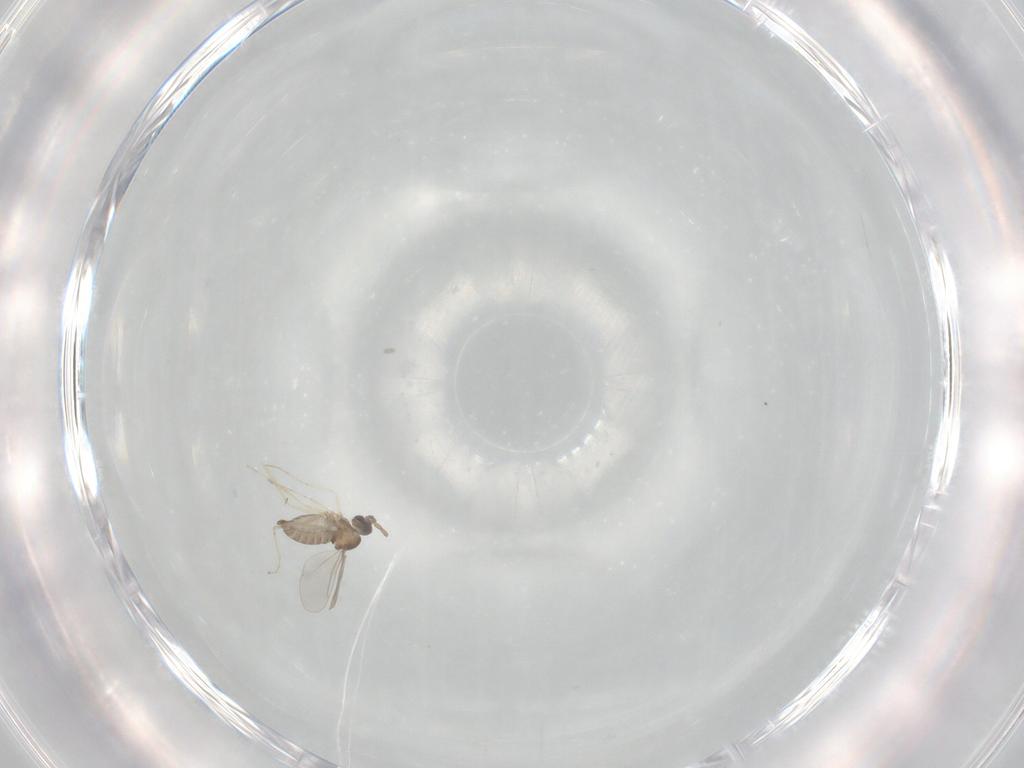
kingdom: Animalia
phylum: Arthropoda
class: Insecta
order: Diptera
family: Cecidomyiidae
